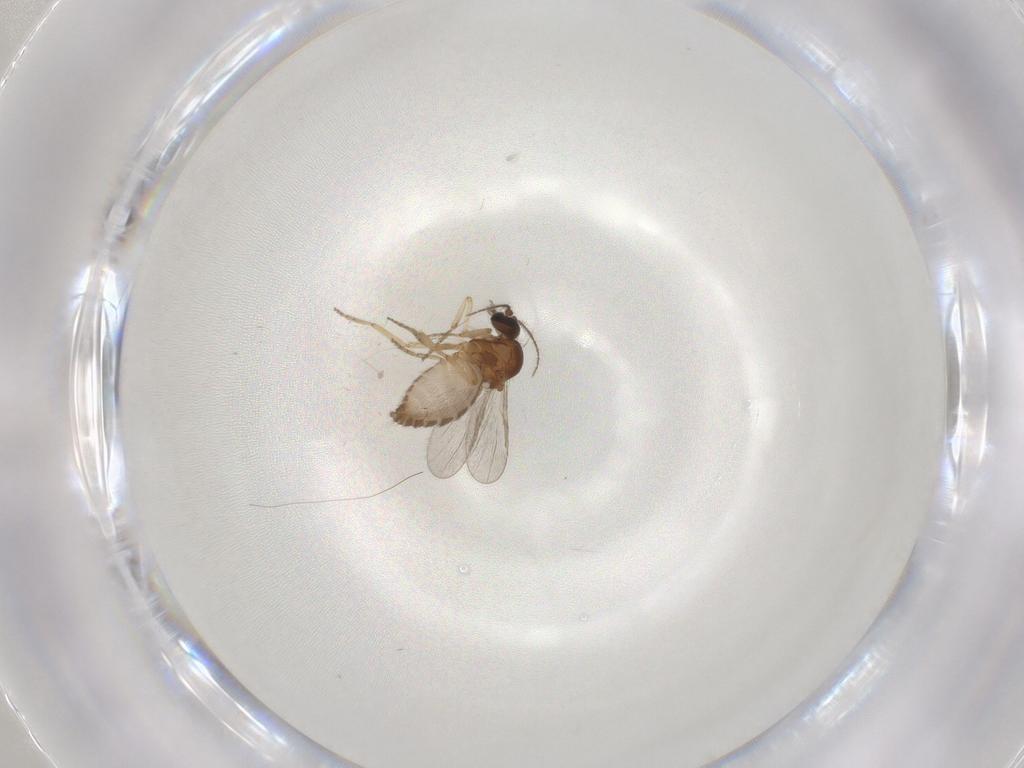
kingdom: Animalia
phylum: Arthropoda
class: Insecta
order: Diptera
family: Ceratopogonidae
